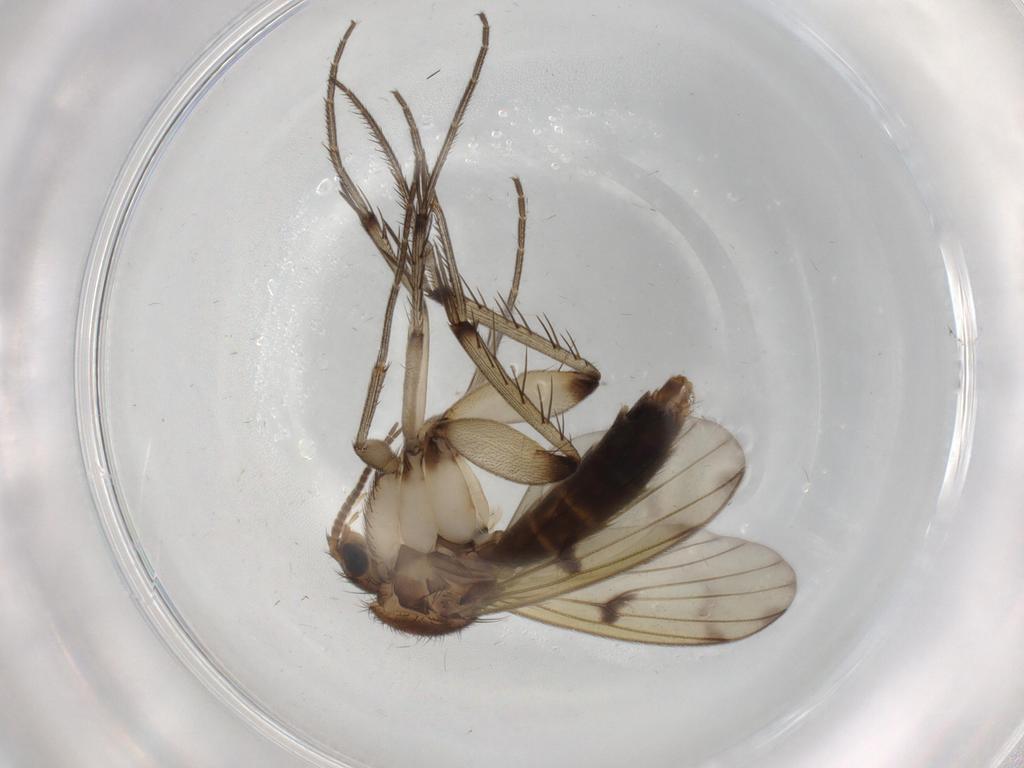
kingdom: Animalia
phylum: Arthropoda
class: Insecta
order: Diptera
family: Mycetophilidae
